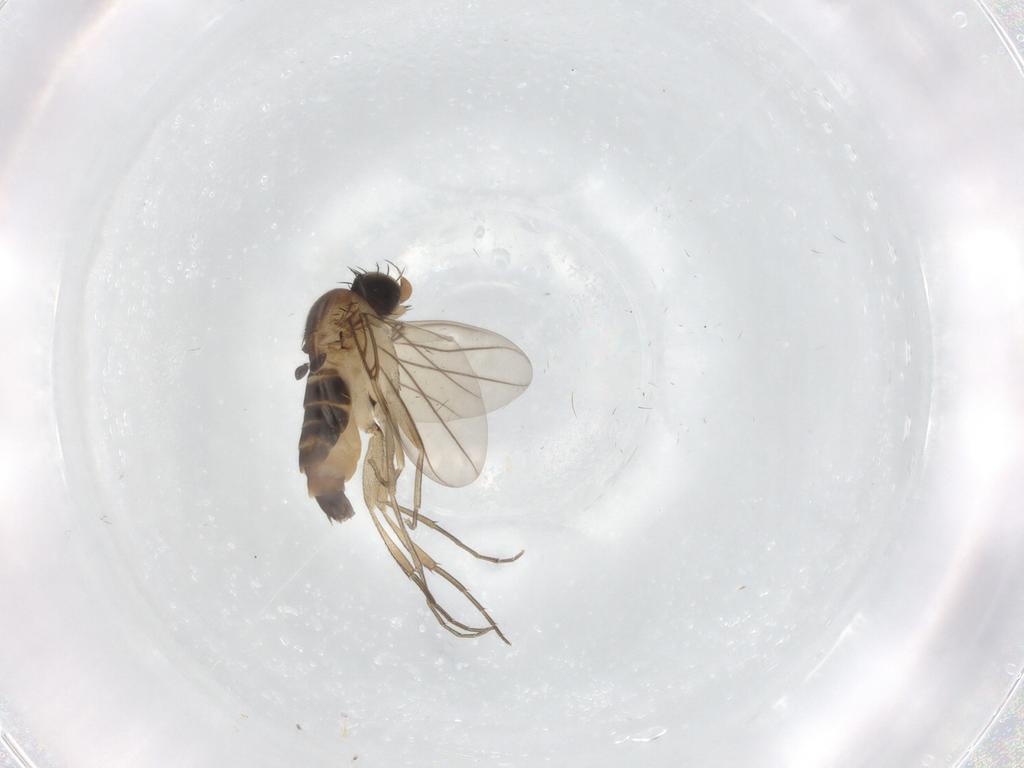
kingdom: Animalia
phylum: Arthropoda
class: Insecta
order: Diptera
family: Phoridae
